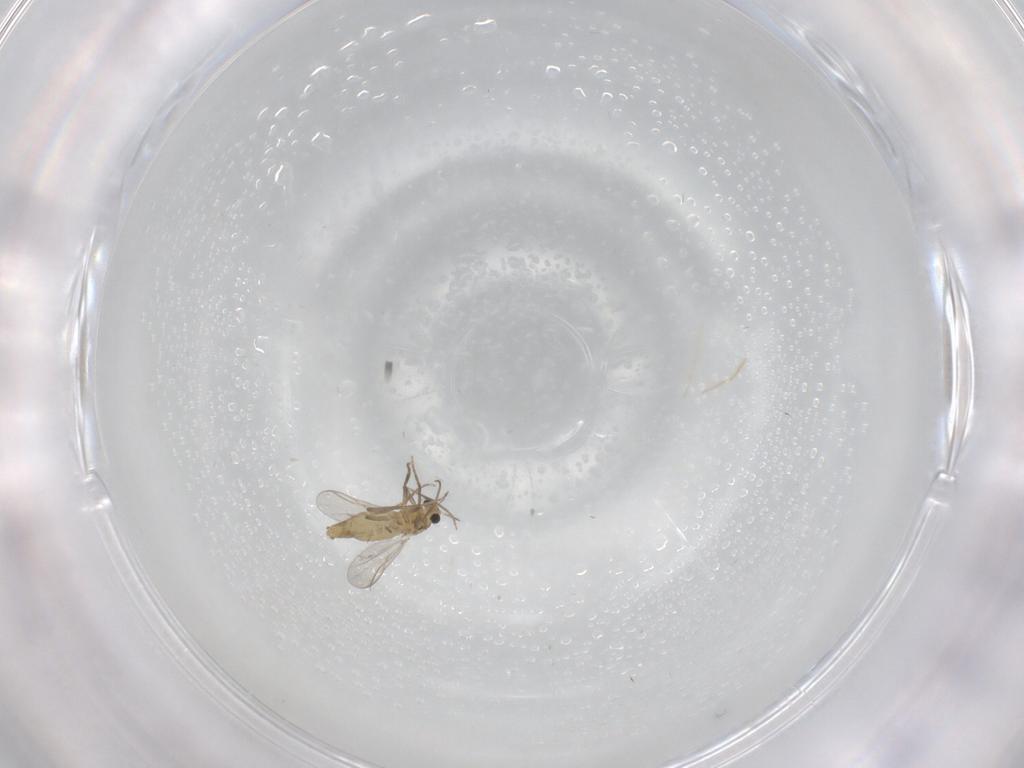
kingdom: Animalia
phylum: Arthropoda
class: Insecta
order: Diptera
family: Chironomidae
